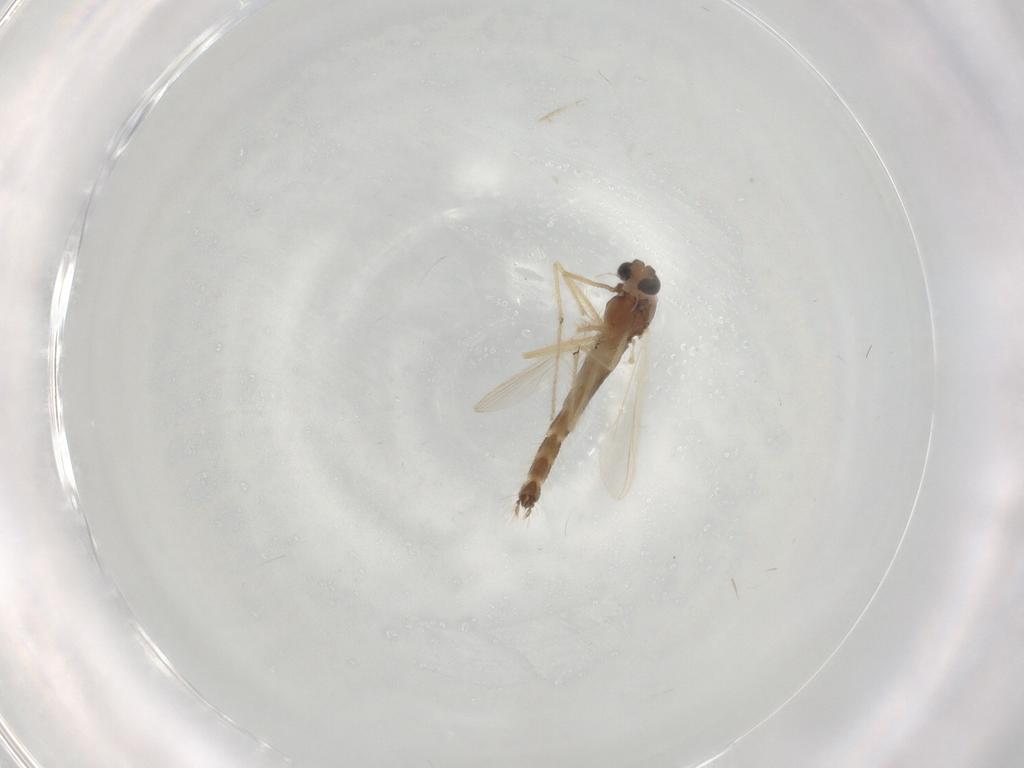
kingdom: Animalia
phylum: Arthropoda
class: Insecta
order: Diptera
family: Chironomidae
